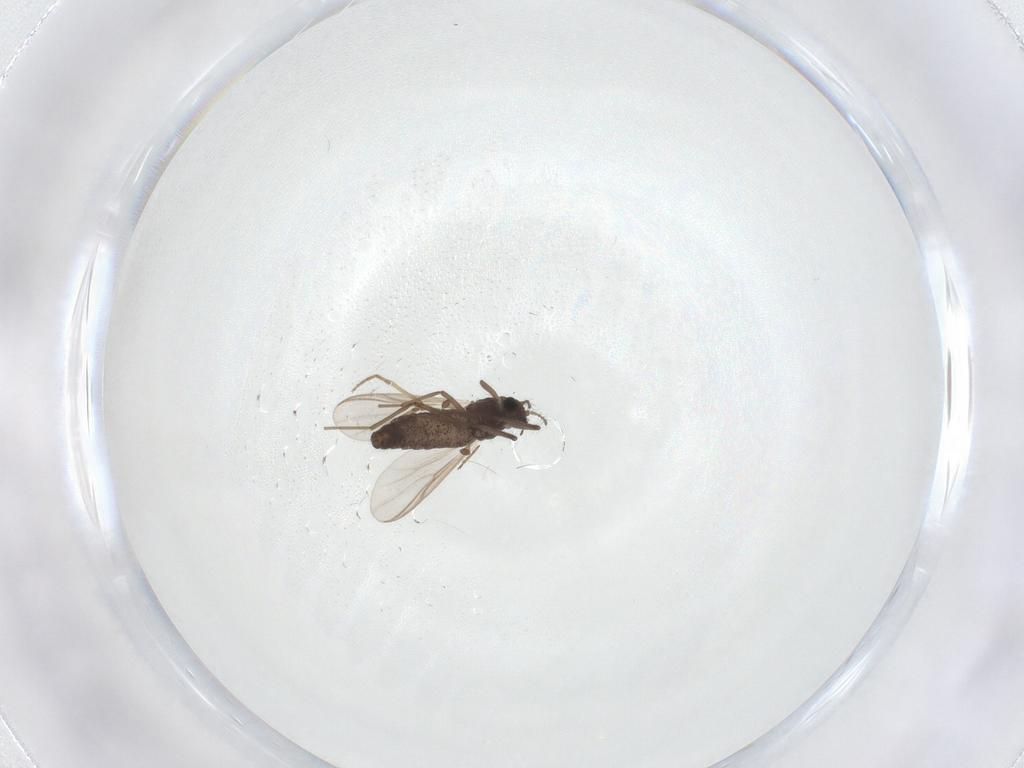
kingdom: Animalia
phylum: Arthropoda
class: Insecta
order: Diptera
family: Chironomidae
